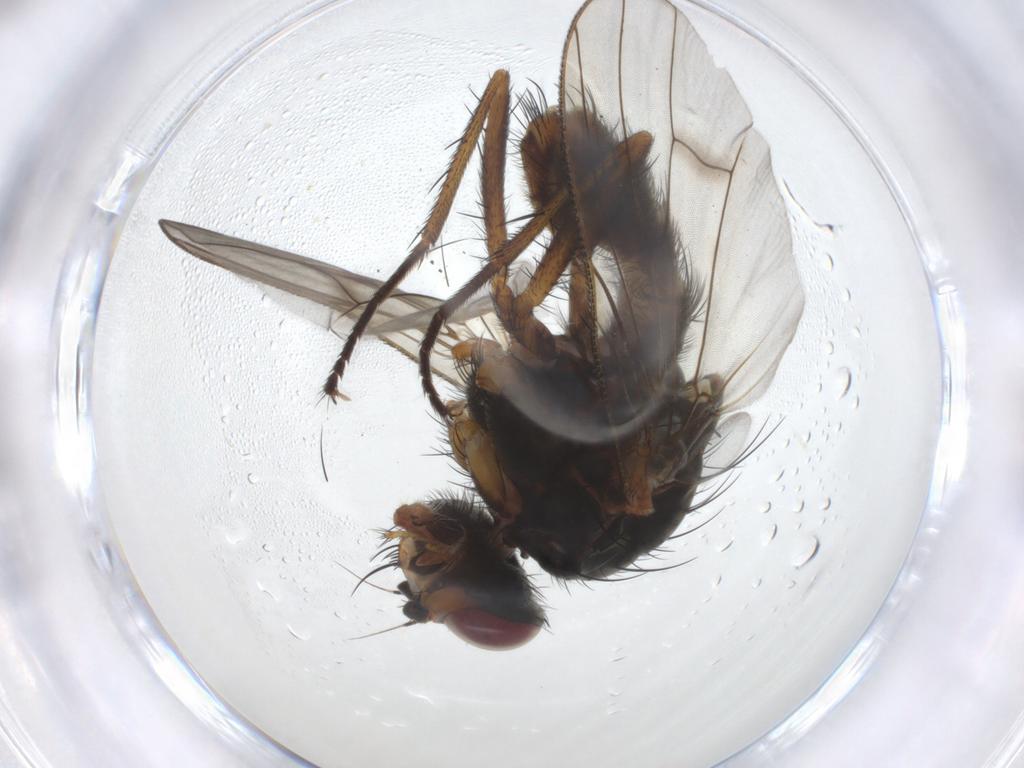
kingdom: Animalia
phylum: Arthropoda
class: Insecta
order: Diptera
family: Anthomyiidae
